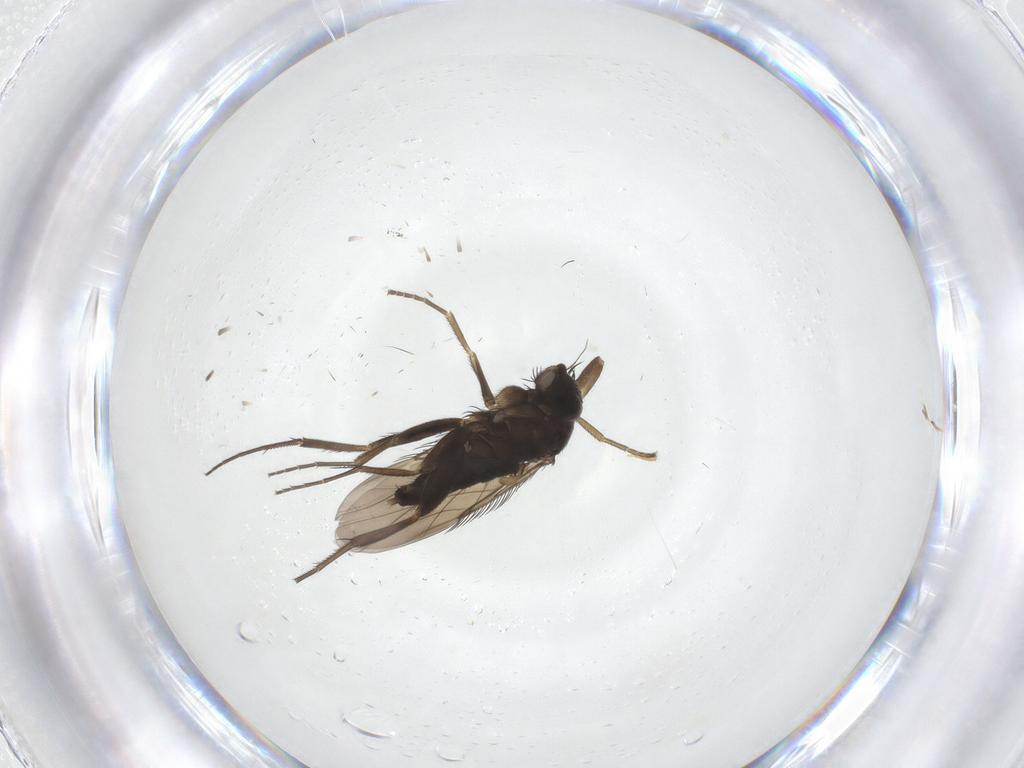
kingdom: Animalia
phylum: Arthropoda
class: Insecta
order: Diptera
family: Phoridae
